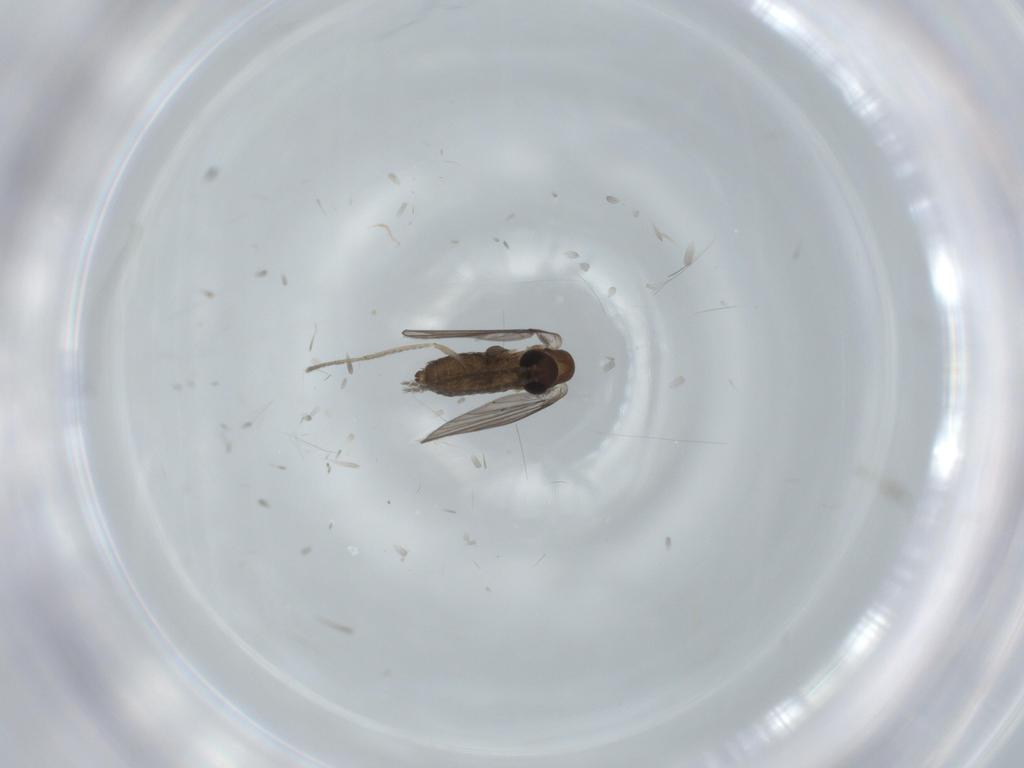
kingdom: Animalia
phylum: Arthropoda
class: Insecta
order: Diptera
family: Psychodidae
